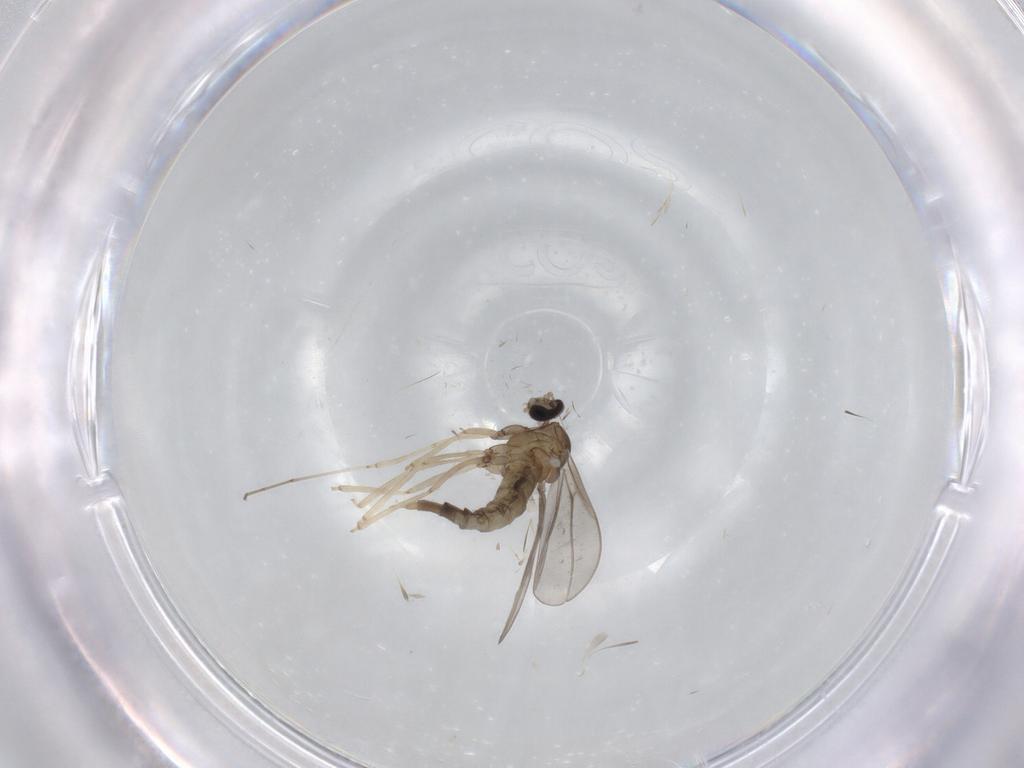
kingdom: Animalia
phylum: Arthropoda
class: Insecta
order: Diptera
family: Cecidomyiidae
